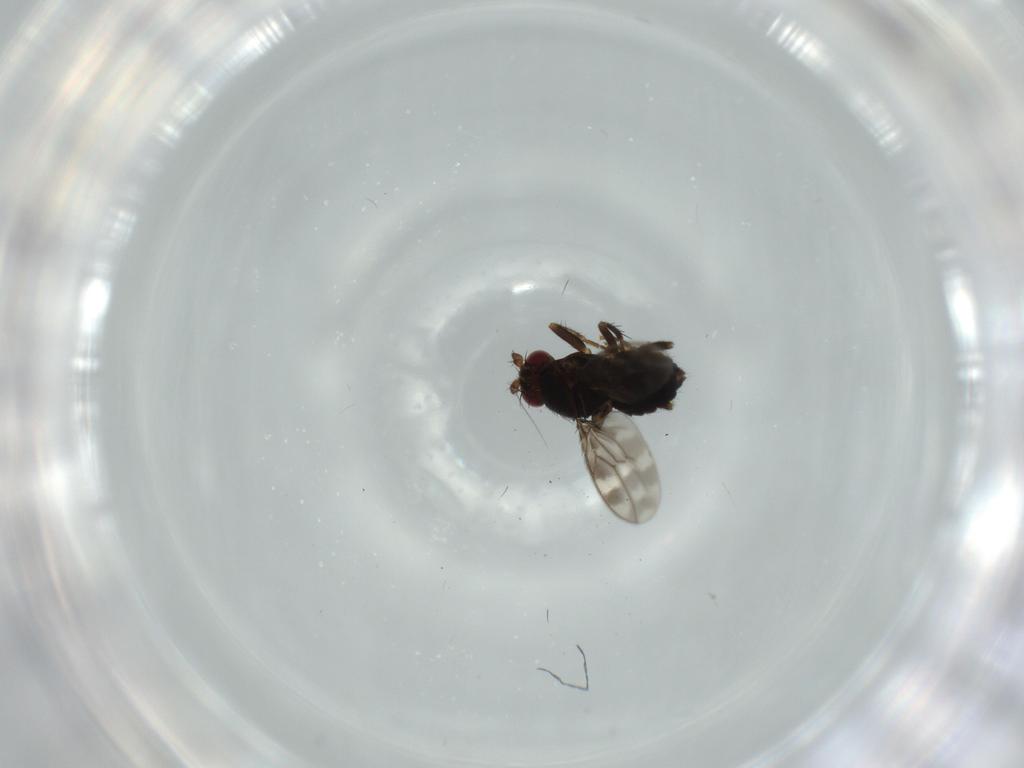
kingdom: Animalia
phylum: Arthropoda
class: Insecta
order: Diptera
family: Sphaeroceridae
